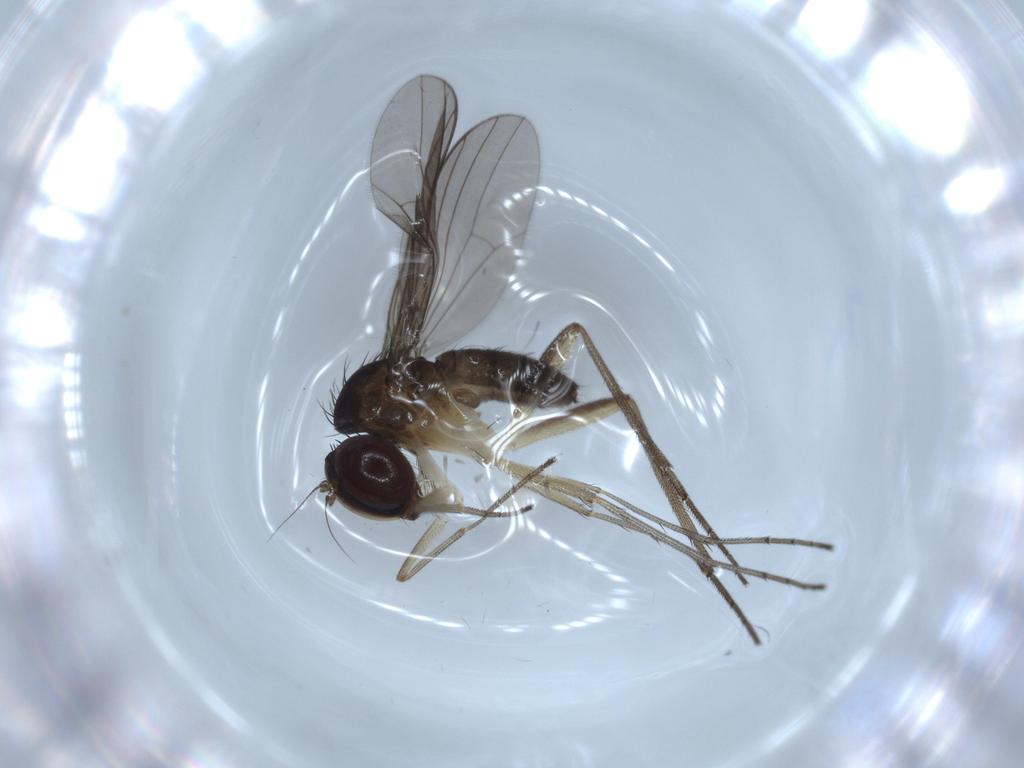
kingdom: Animalia
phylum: Arthropoda
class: Insecta
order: Diptera
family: Dolichopodidae
